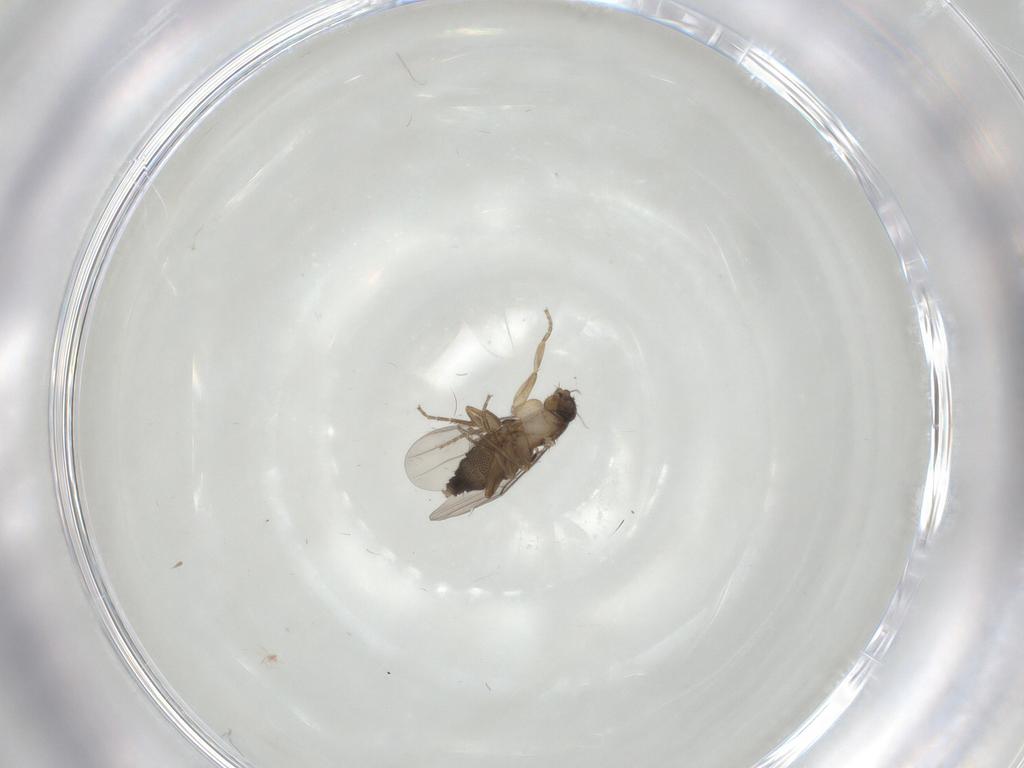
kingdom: Animalia
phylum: Arthropoda
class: Insecta
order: Diptera
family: Phoridae
